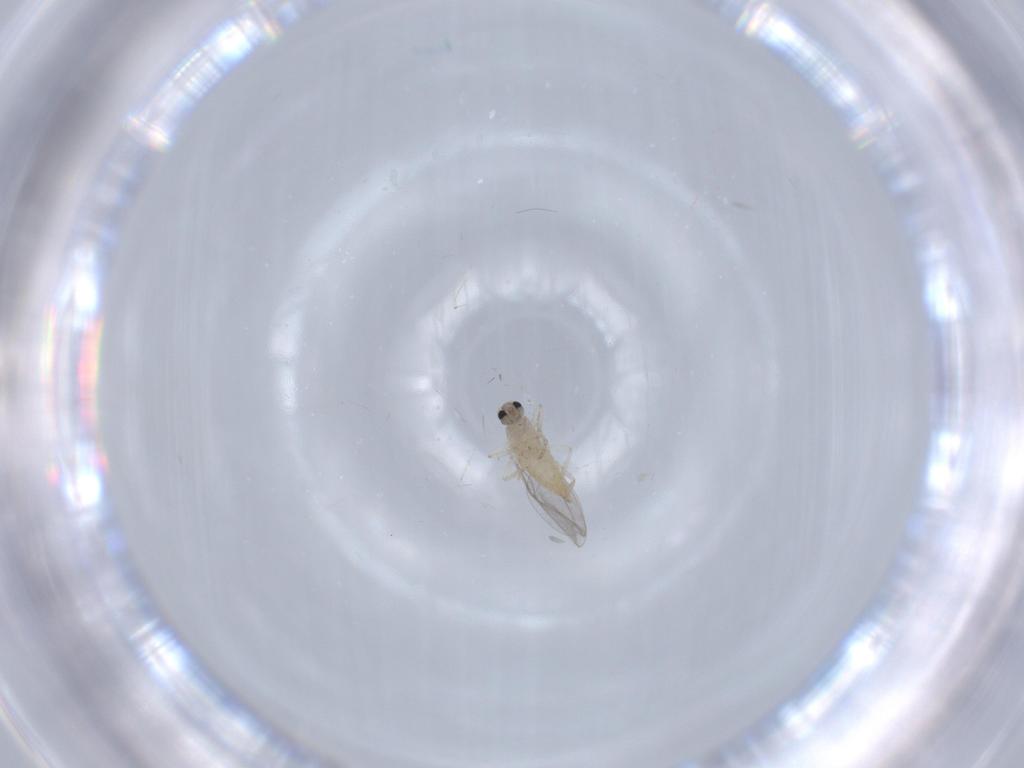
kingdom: Animalia
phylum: Arthropoda
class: Insecta
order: Diptera
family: Cecidomyiidae
